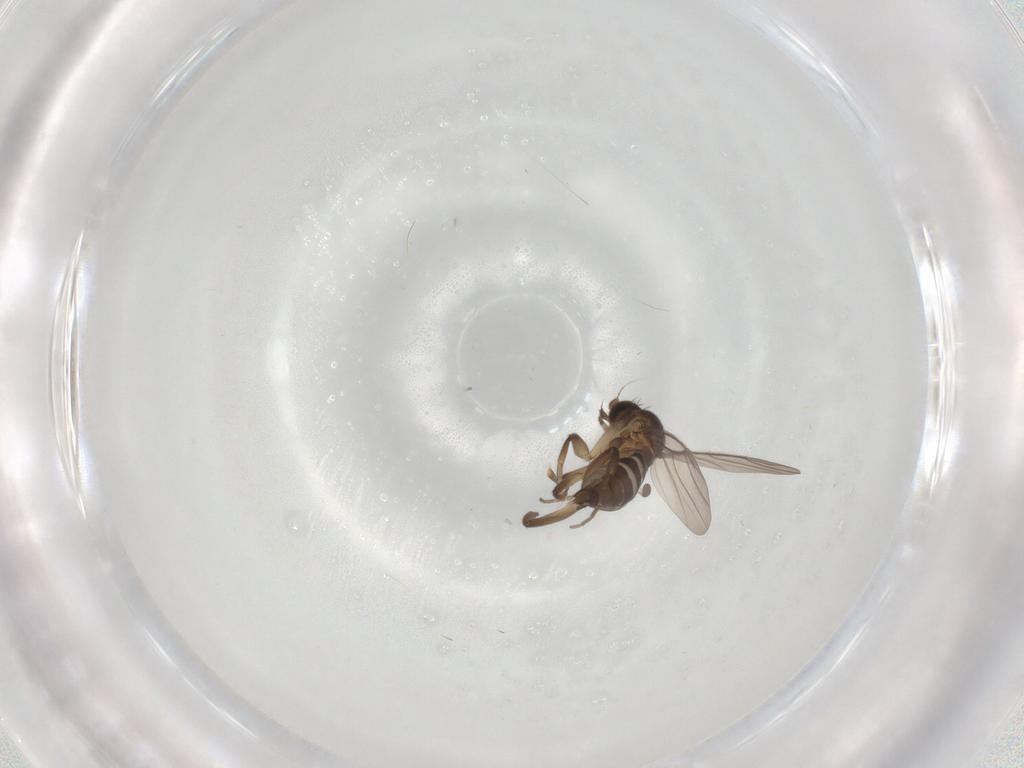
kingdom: Animalia
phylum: Arthropoda
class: Insecta
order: Diptera
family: Phoridae
